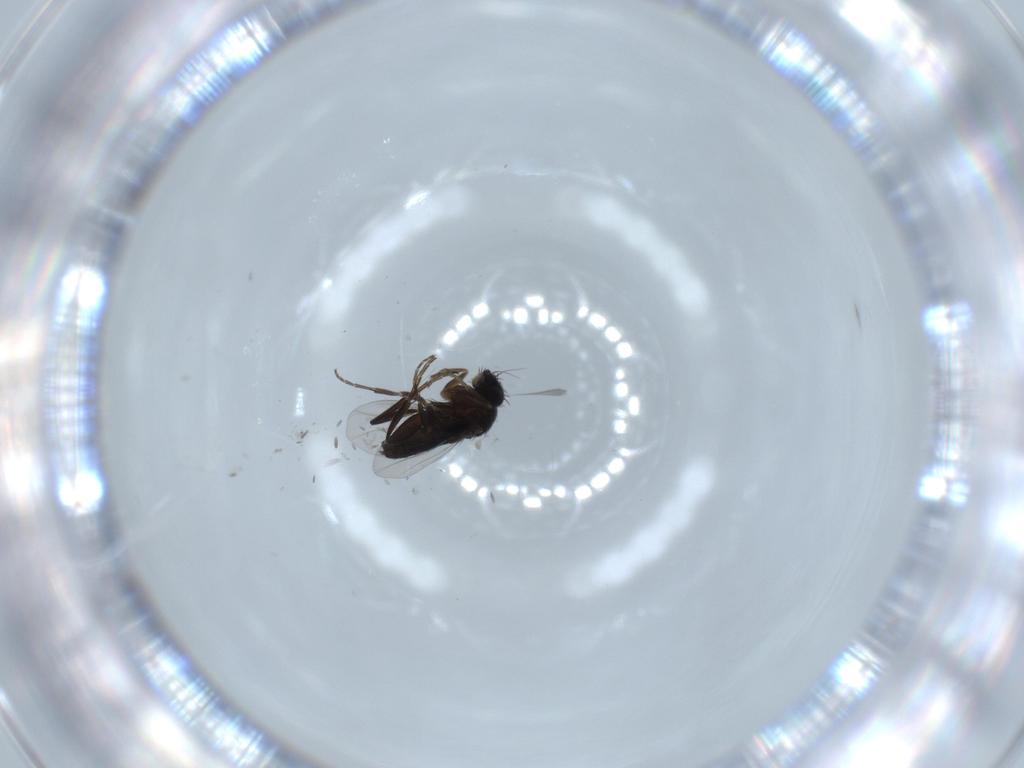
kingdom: Animalia
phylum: Arthropoda
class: Insecta
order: Diptera
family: Phoridae
